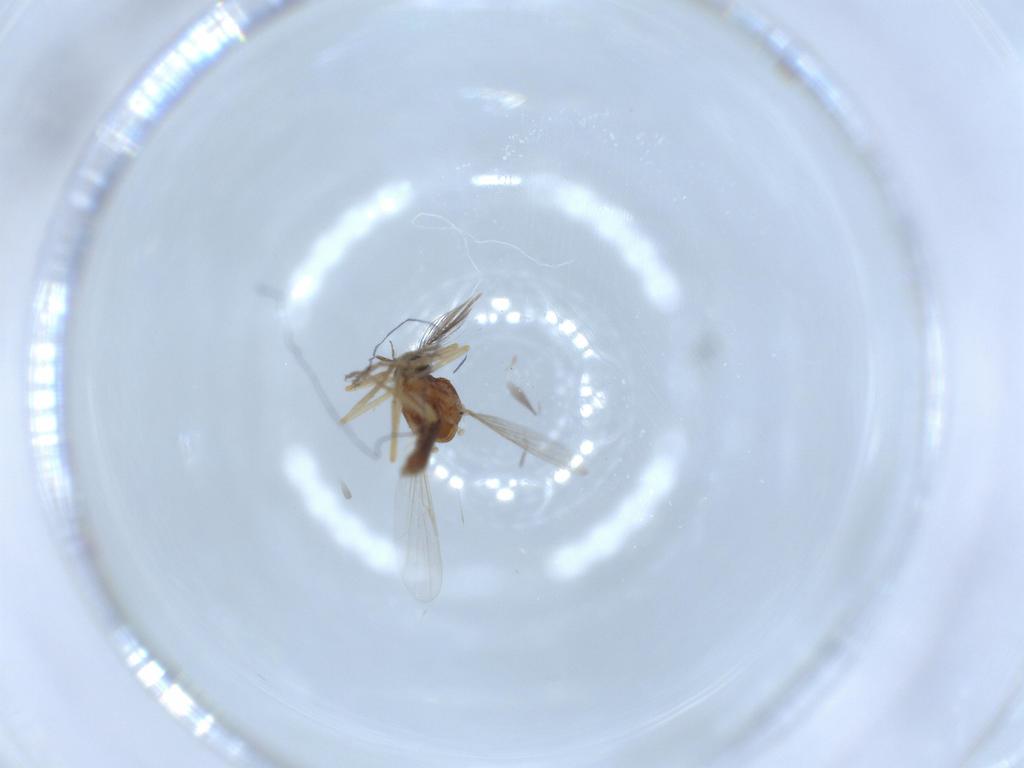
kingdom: Animalia
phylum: Arthropoda
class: Insecta
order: Diptera
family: Ceratopogonidae
